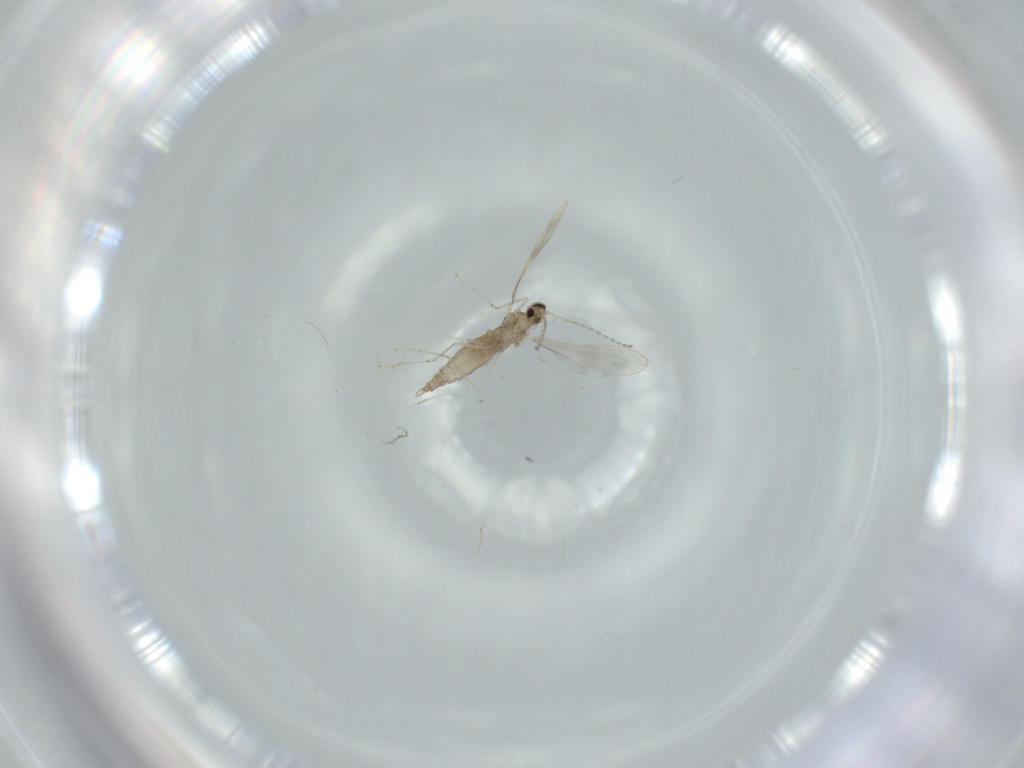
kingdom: Animalia
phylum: Arthropoda
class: Insecta
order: Diptera
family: Cecidomyiidae
